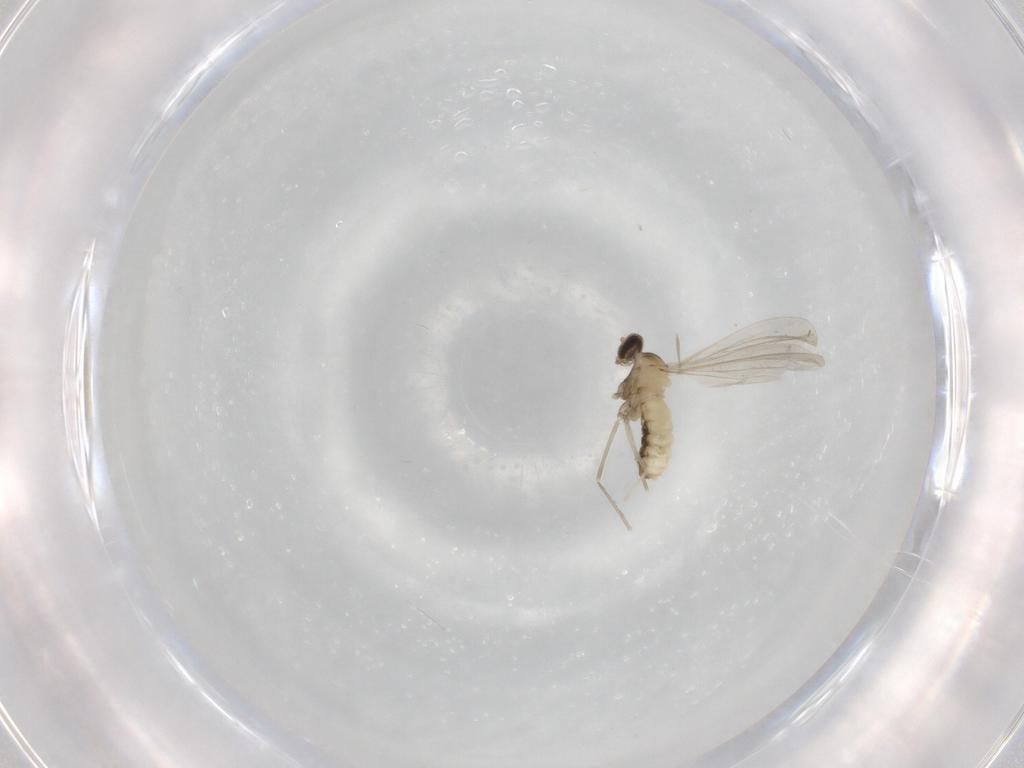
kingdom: Animalia
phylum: Arthropoda
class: Insecta
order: Diptera
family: Cecidomyiidae
